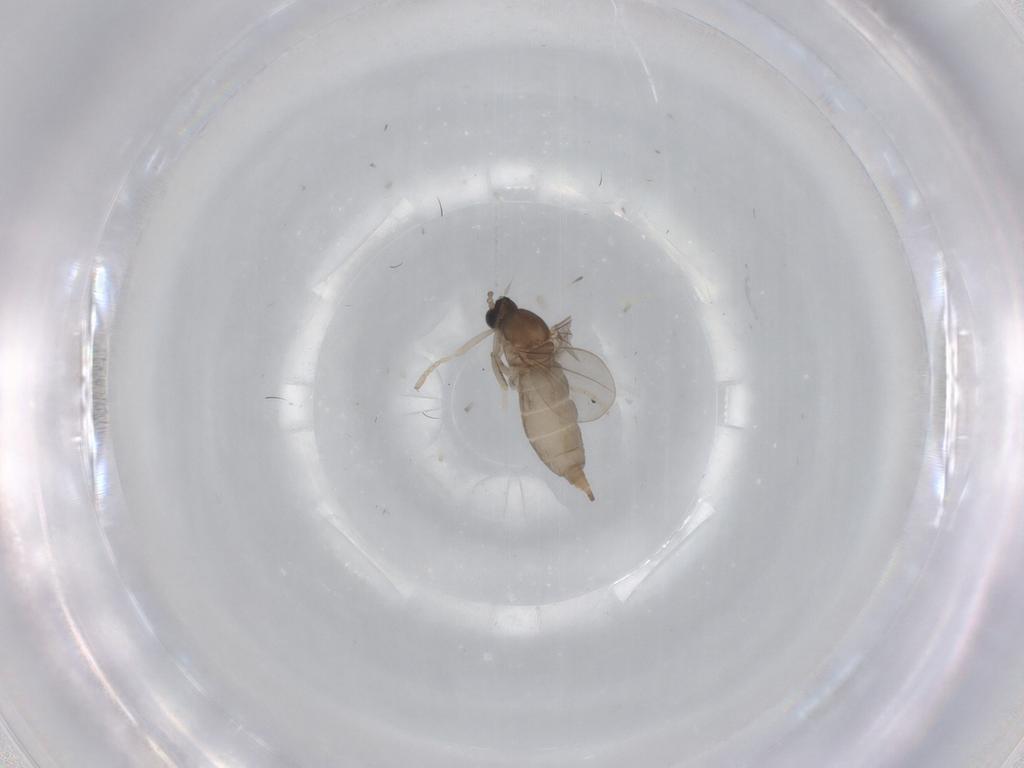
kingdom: Animalia
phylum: Arthropoda
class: Insecta
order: Diptera
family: Cecidomyiidae
